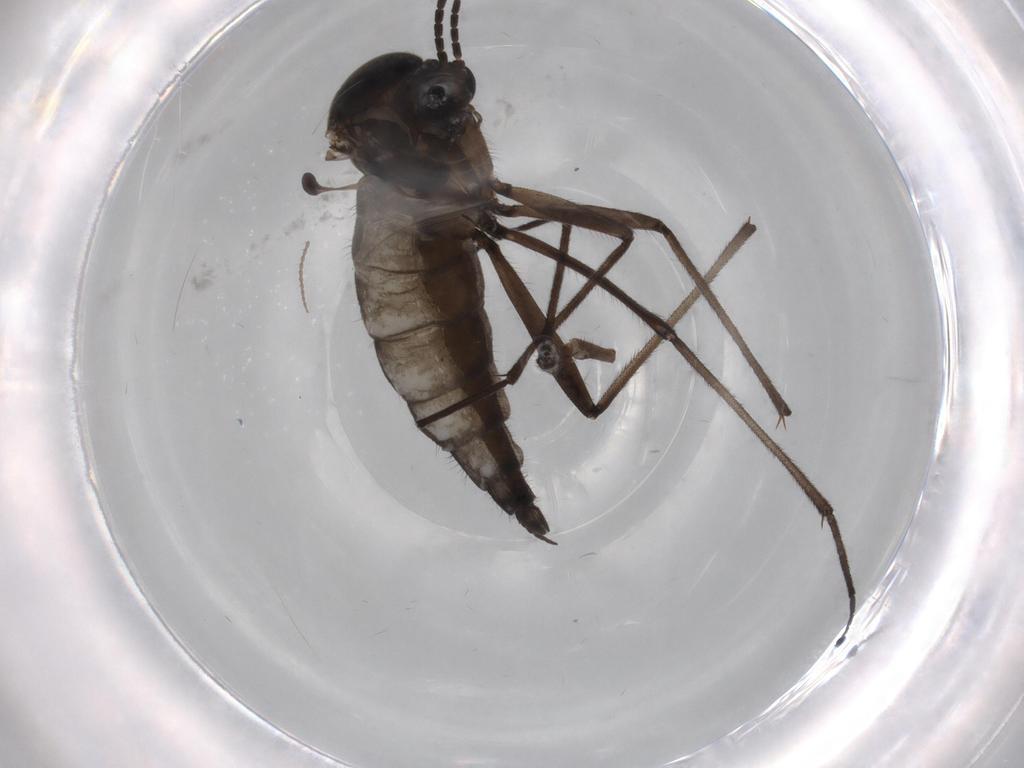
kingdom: Animalia
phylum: Arthropoda
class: Insecta
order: Diptera
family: Sciaridae
